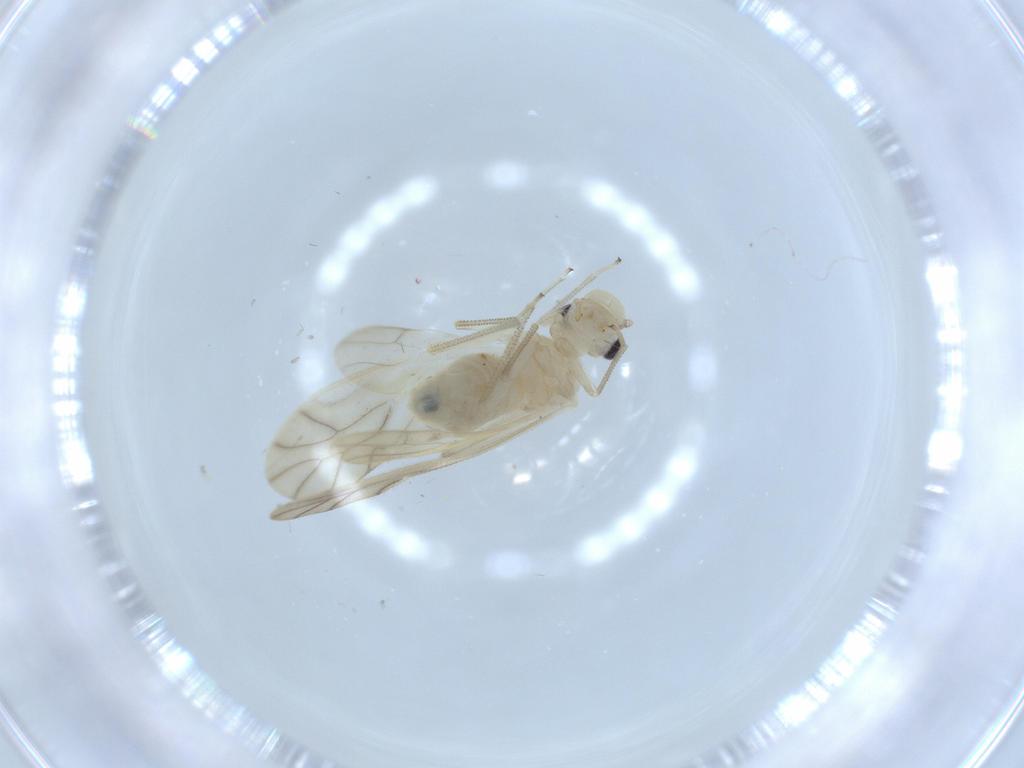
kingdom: Animalia
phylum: Arthropoda
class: Insecta
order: Psocodea
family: Caeciliusidae
